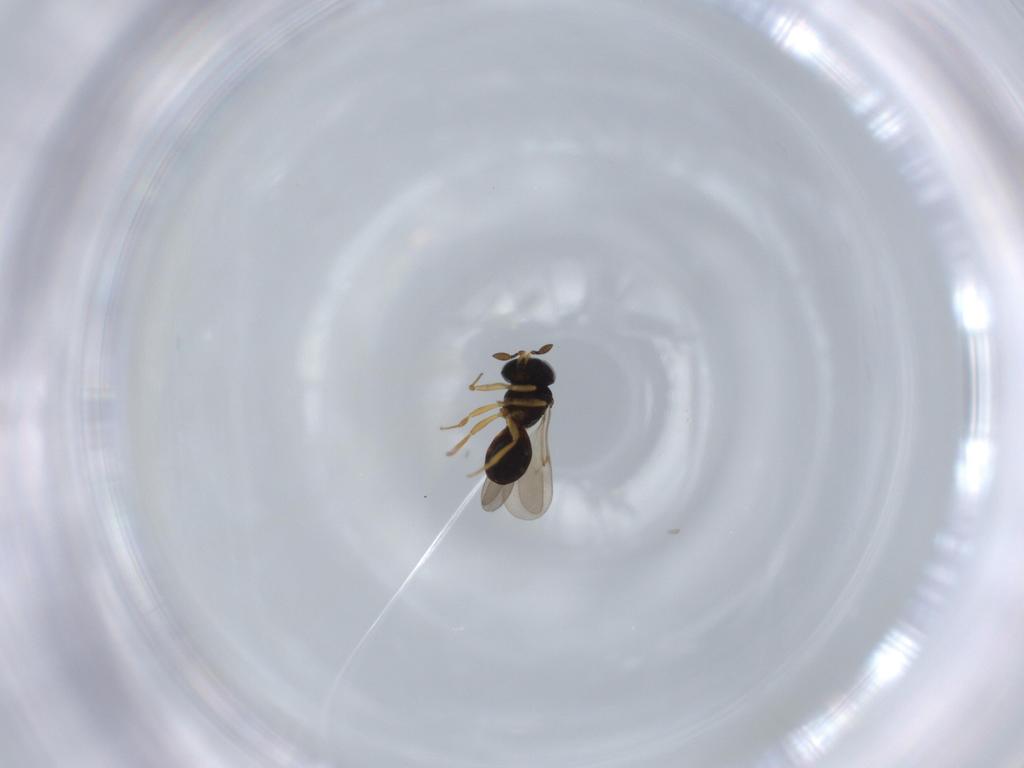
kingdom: Animalia
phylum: Arthropoda
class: Insecta
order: Hymenoptera
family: Scelionidae
